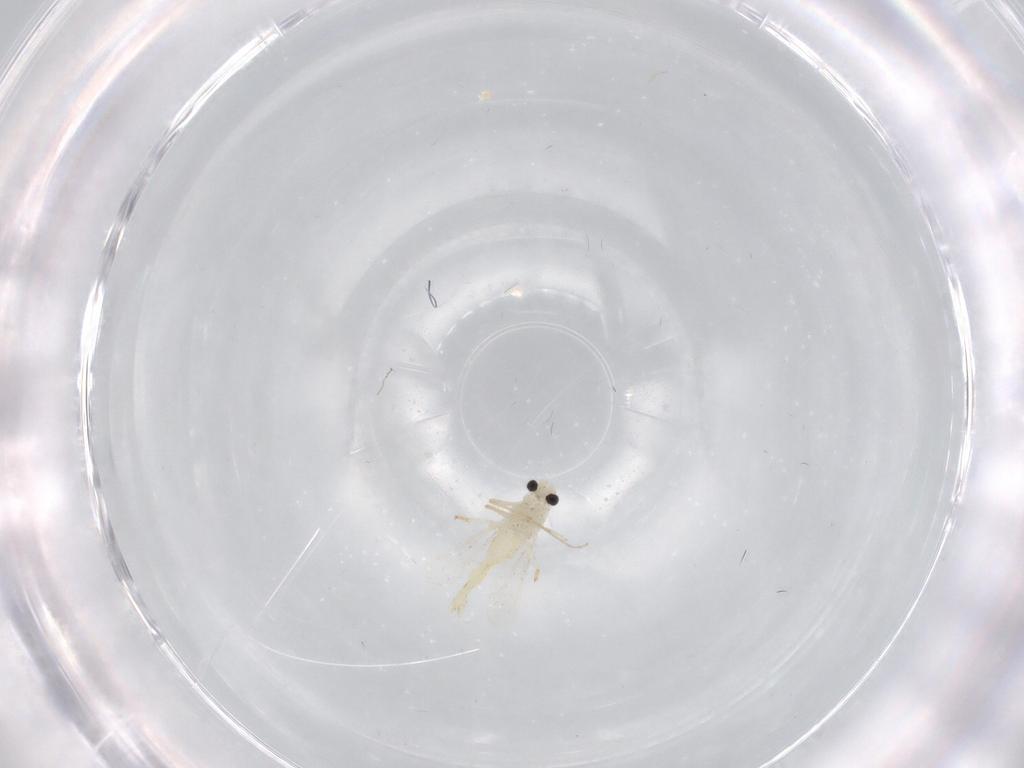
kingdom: Animalia
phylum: Arthropoda
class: Insecta
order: Diptera
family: Chironomidae
